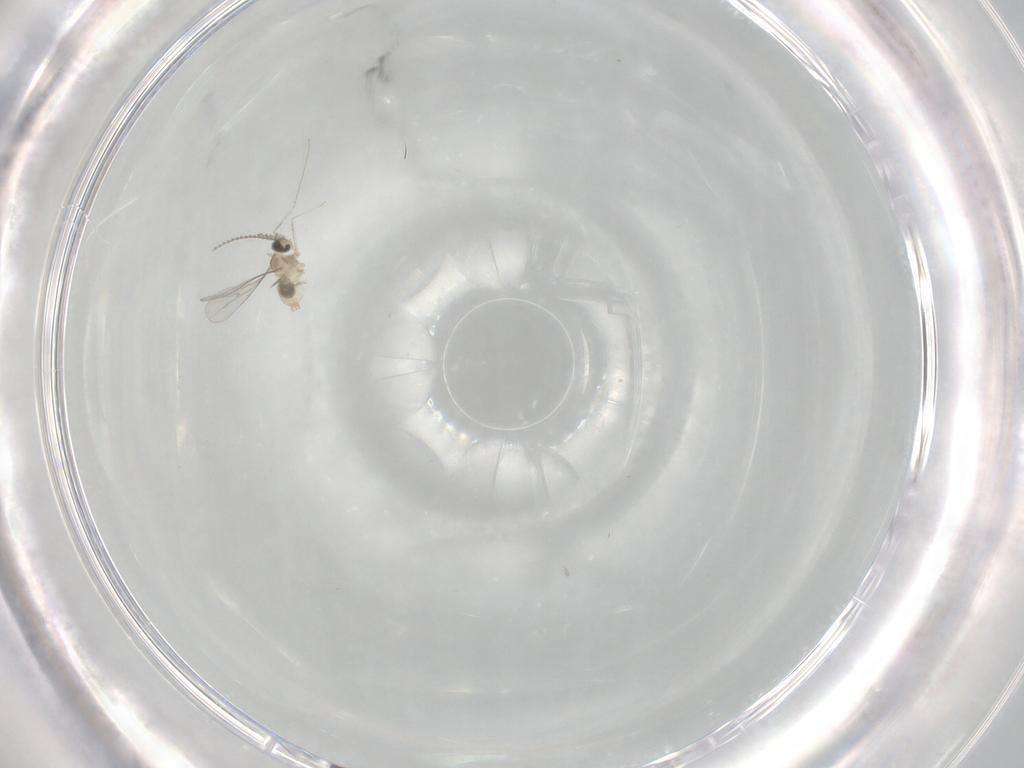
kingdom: Animalia
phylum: Arthropoda
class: Insecta
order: Diptera
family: Cecidomyiidae
